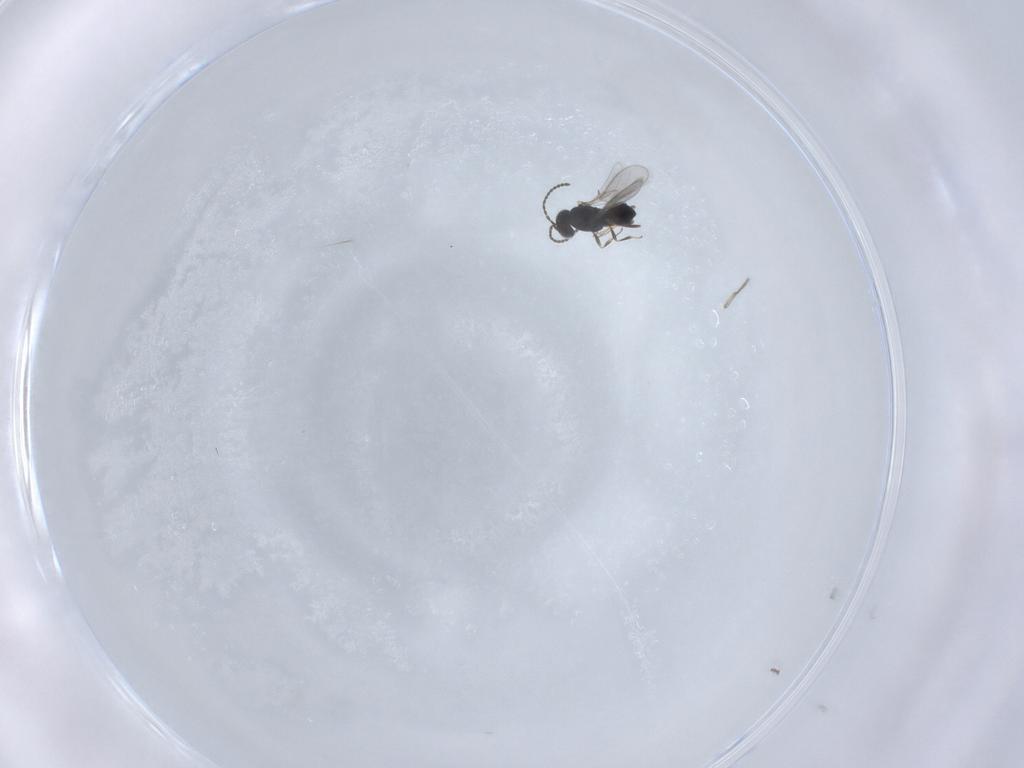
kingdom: Animalia
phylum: Arthropoda
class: Insecta
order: Hymenoptera
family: Scelionidae
